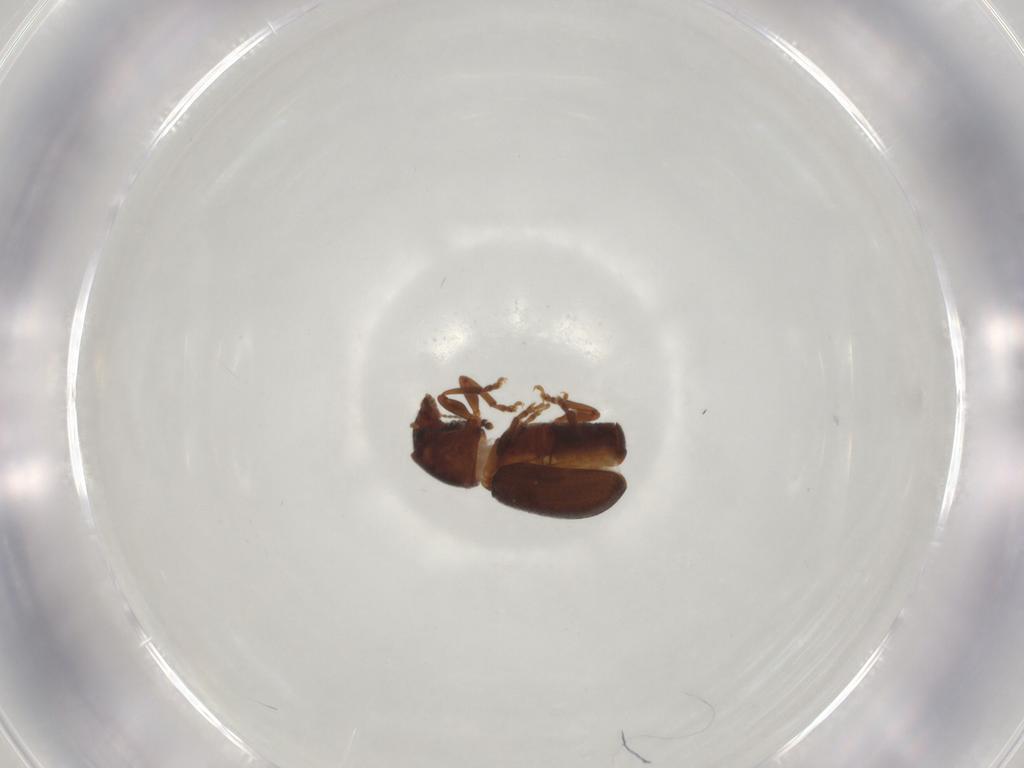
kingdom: Animalia
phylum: Arthropoda
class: Insecta
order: Coleoptera
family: Anthribidae
